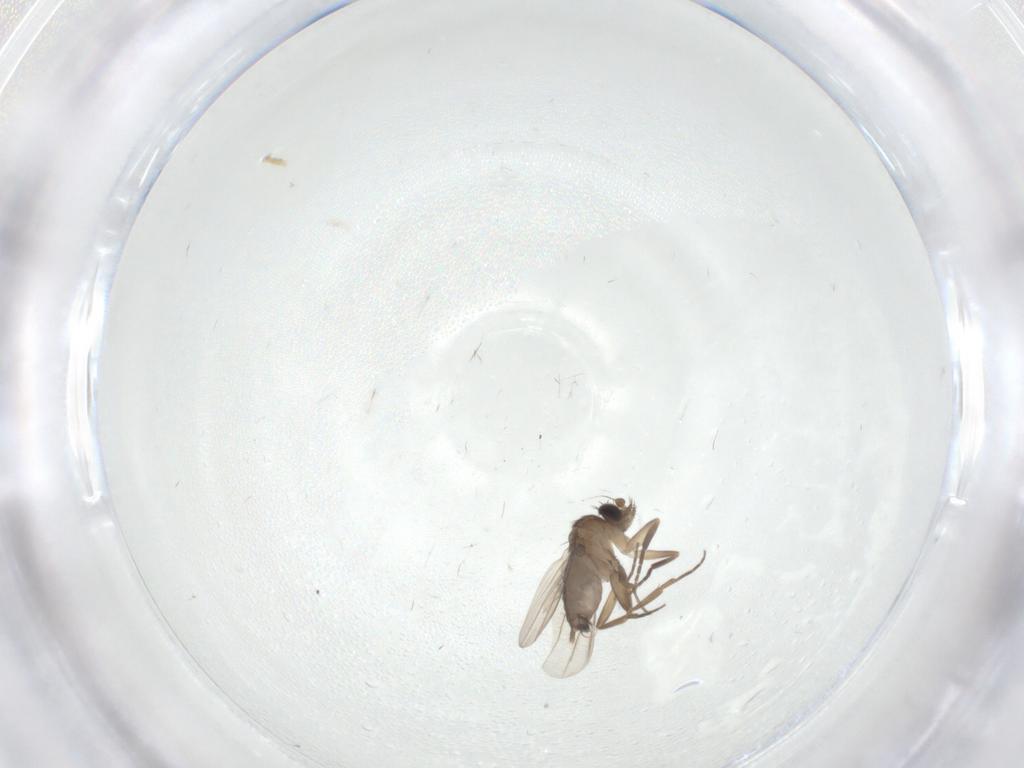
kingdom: Animalia
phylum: Arthropoda
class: Insecta
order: Diptera
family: Phoridae
